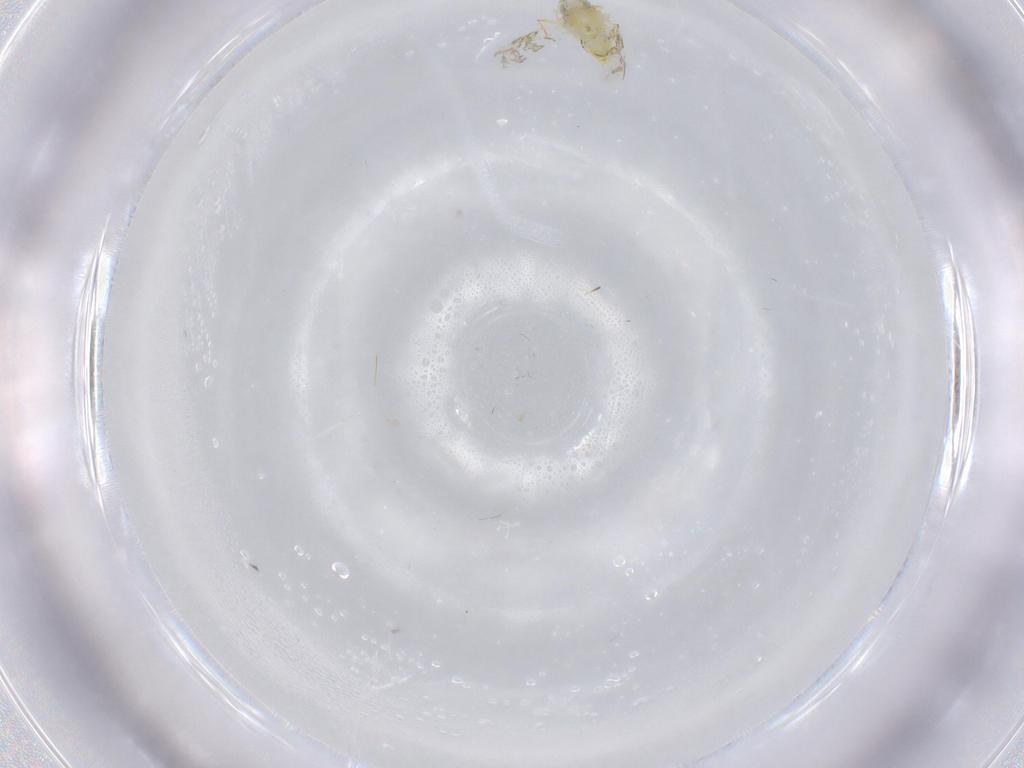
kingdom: Animalia
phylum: Arthropoda
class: Insecta
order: Hemiptera
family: Aleyrodidae
